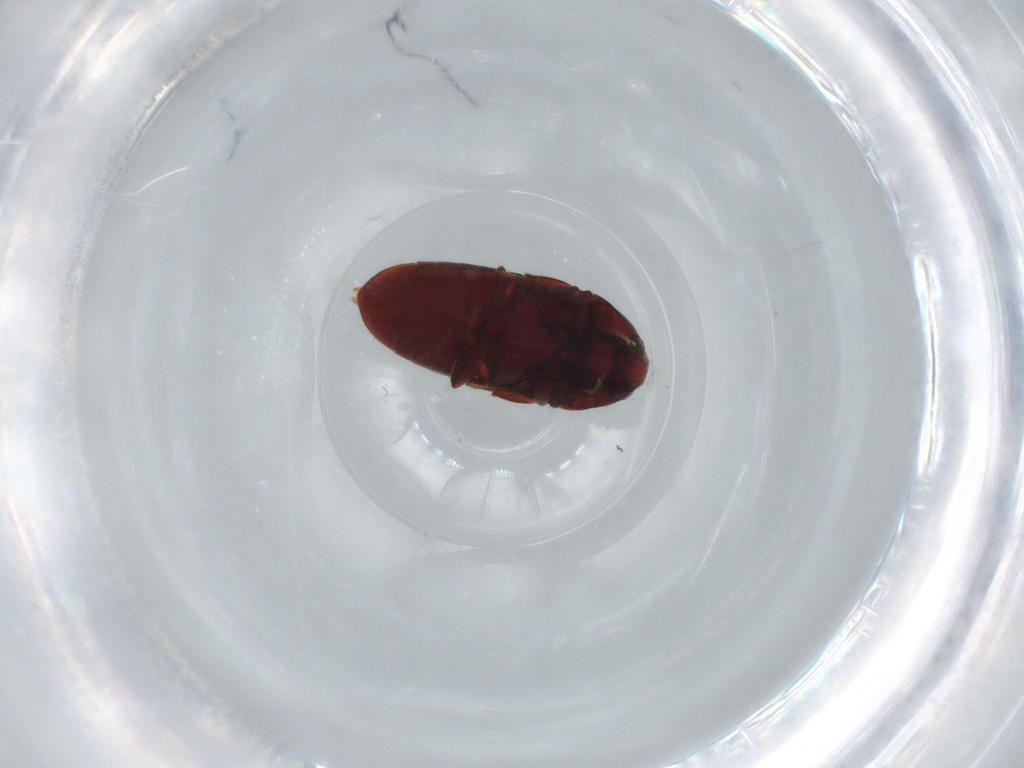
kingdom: Animalia
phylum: Arthropoda
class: Insecta
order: Coleoptera
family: Throscidae
